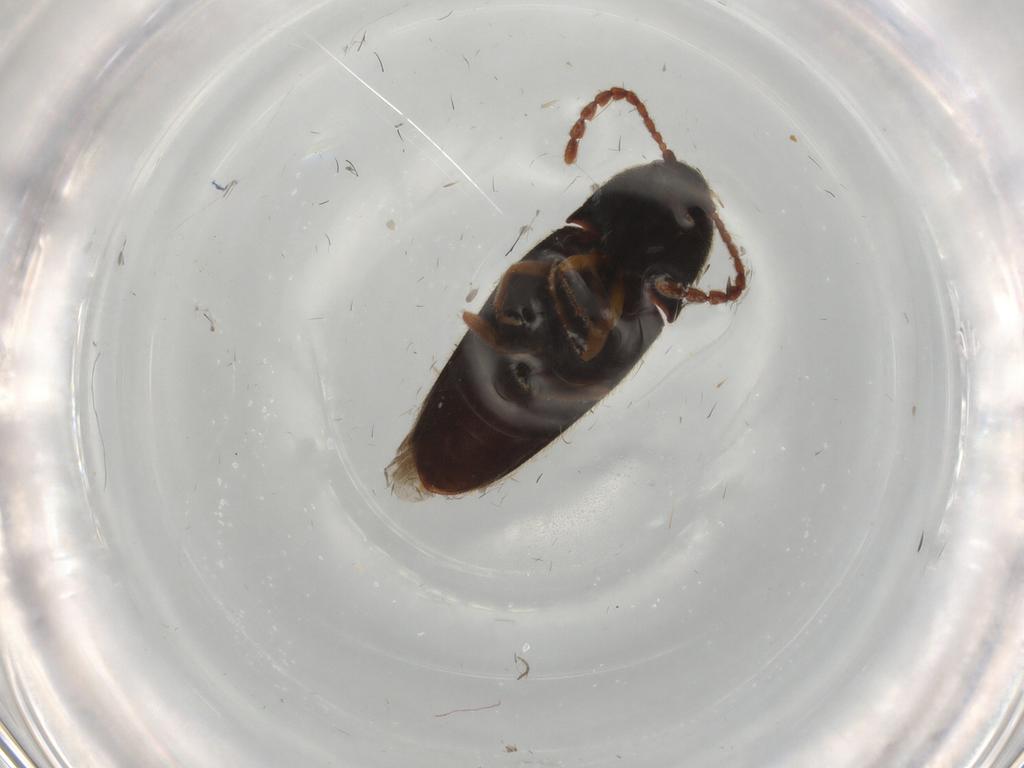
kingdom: Animalia
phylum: Arthropoda
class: Insecta
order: Coleoptera
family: Elateridae
